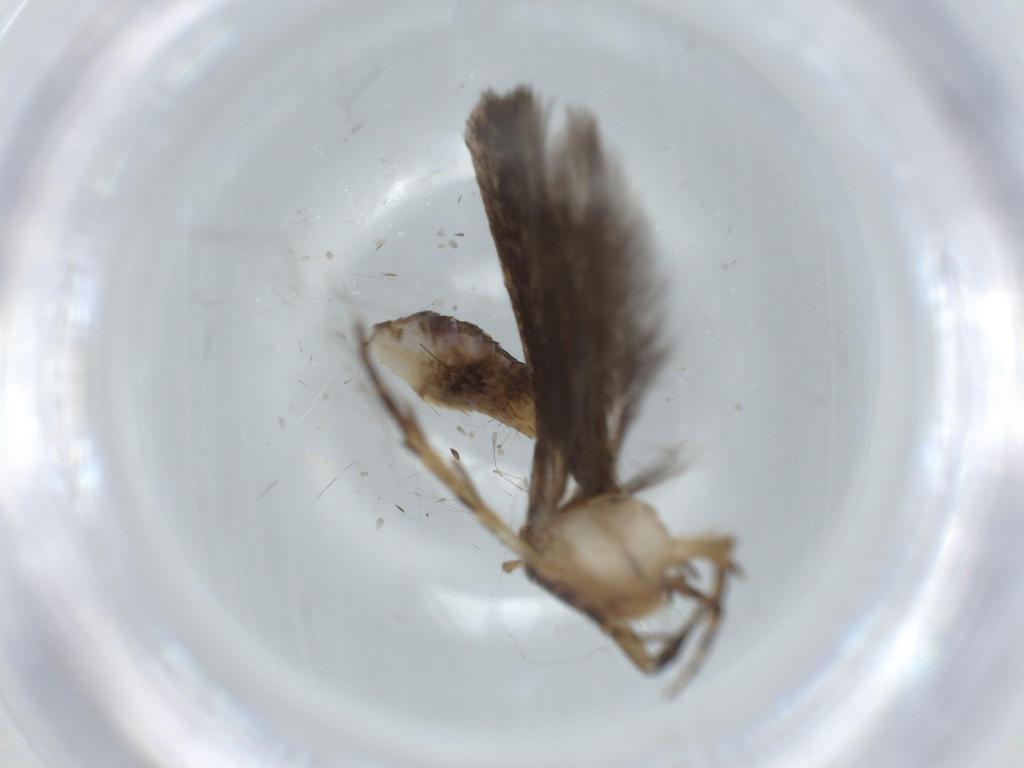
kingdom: Animalia
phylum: Arthropoda
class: Insecta
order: Lepidoptera
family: Gelechiidae
